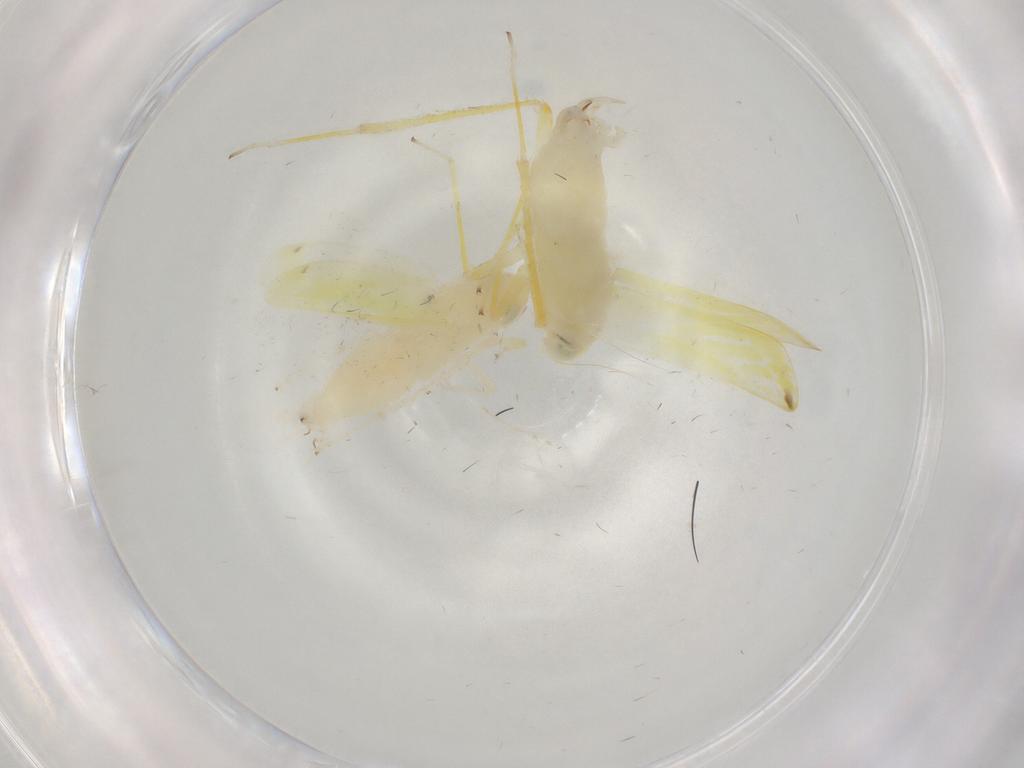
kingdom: Animalia
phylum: Arthropoda
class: Insecta
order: Hemiptera
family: Cicadellidae
